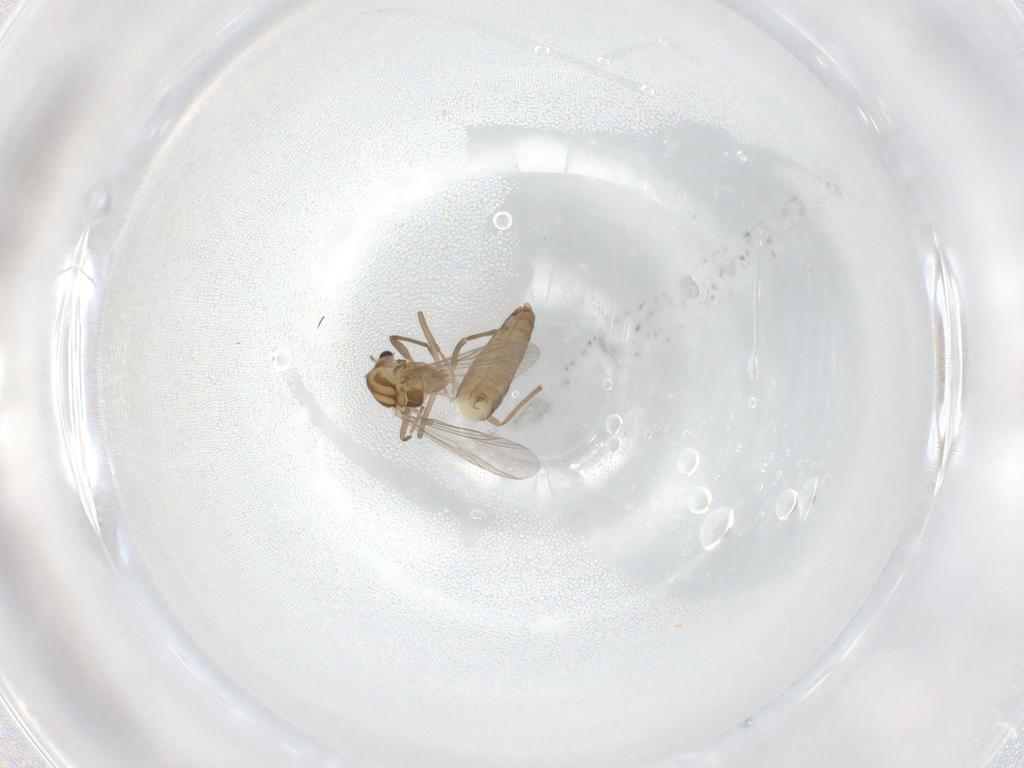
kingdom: Animalia
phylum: Arthropoda
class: Insecta
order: Diptera
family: Chironomidae
